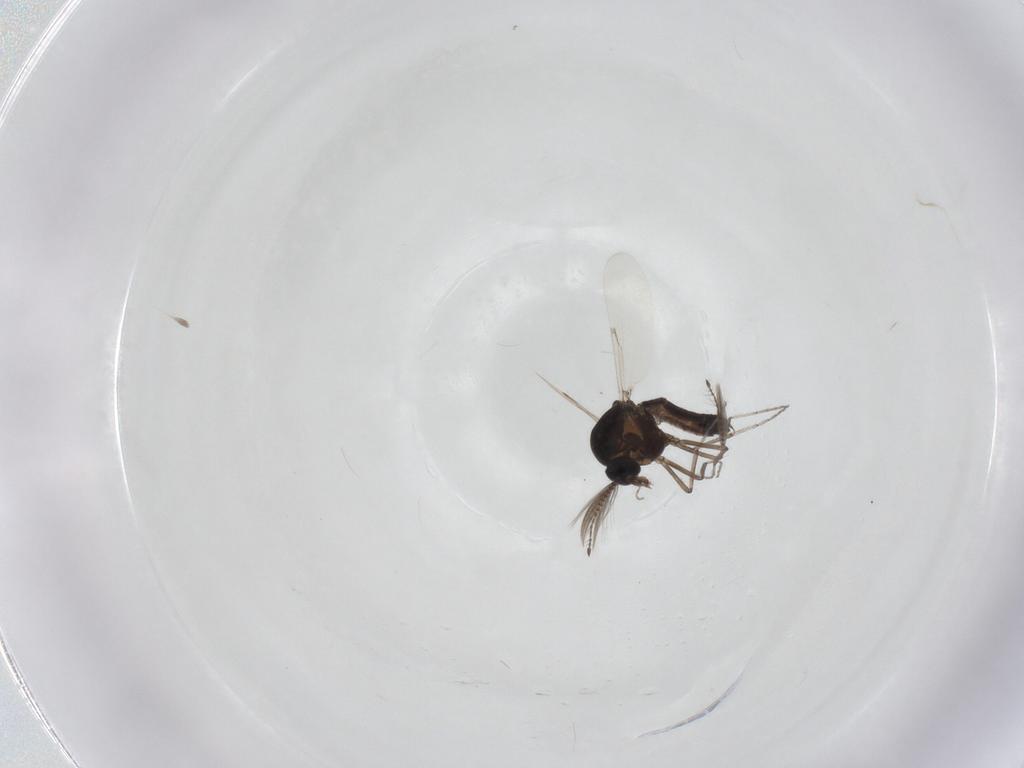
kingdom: Animalia
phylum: Arthropoda
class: Insecta
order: Diptera
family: Ceratopogonidae
